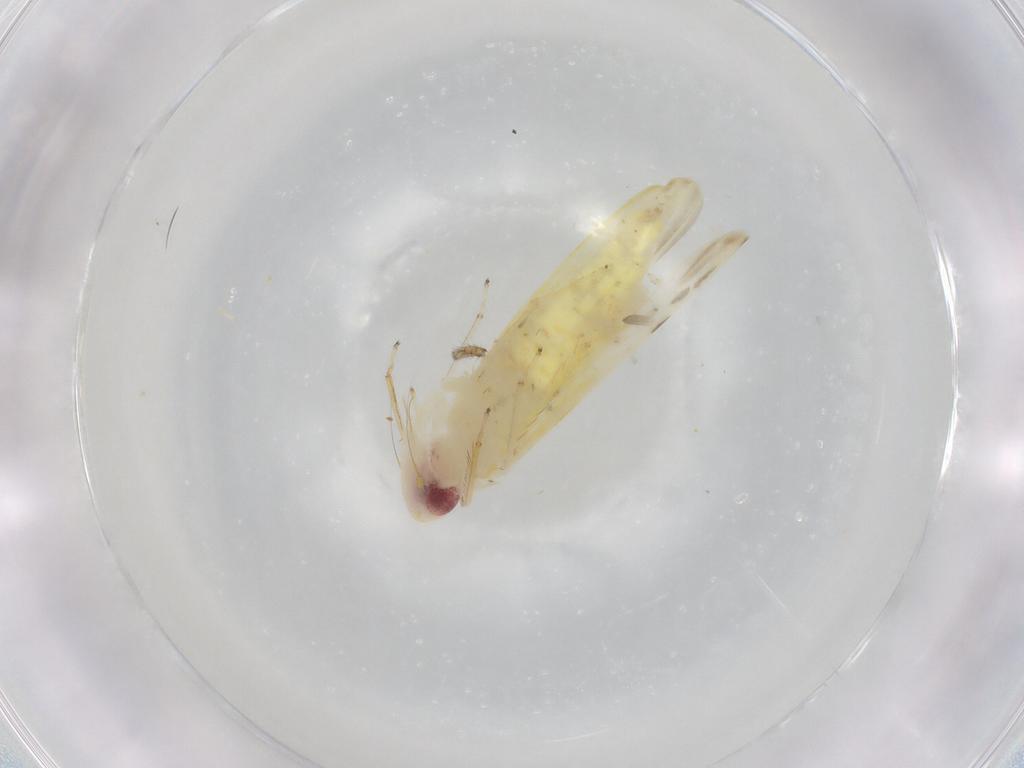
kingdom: Animalia
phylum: Arthropoda
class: Insecta
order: Hemiptera
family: Cicadellidae
